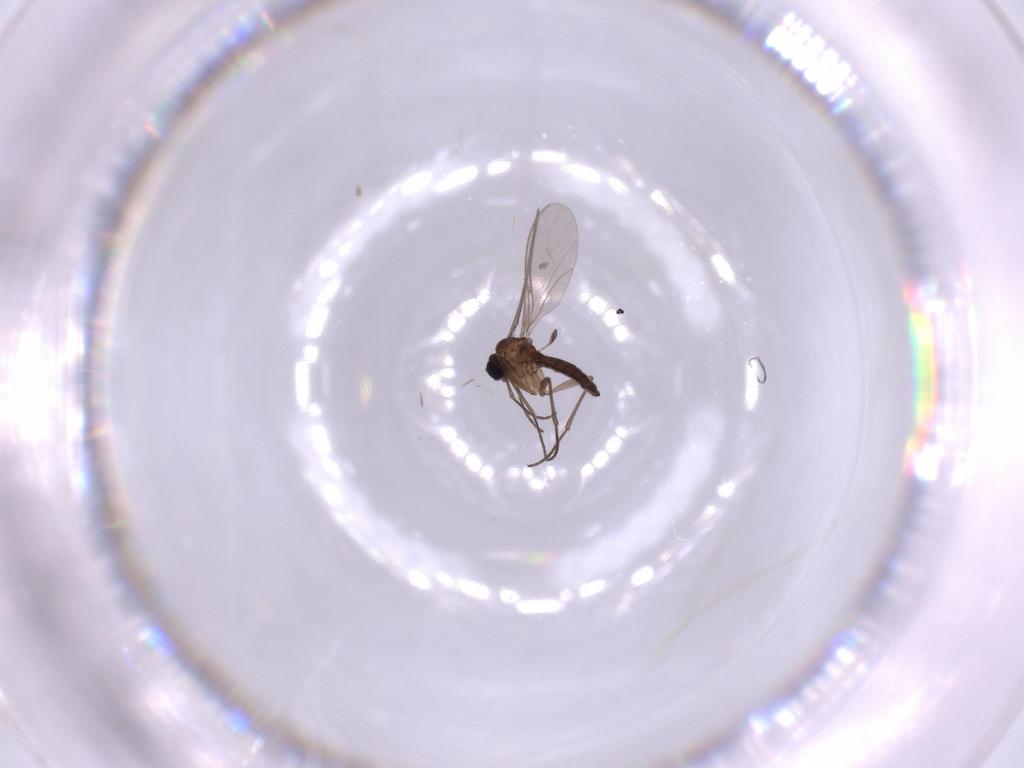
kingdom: Animalia
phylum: Arthropoda
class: Insecta
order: Diptera
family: Sciaridae
